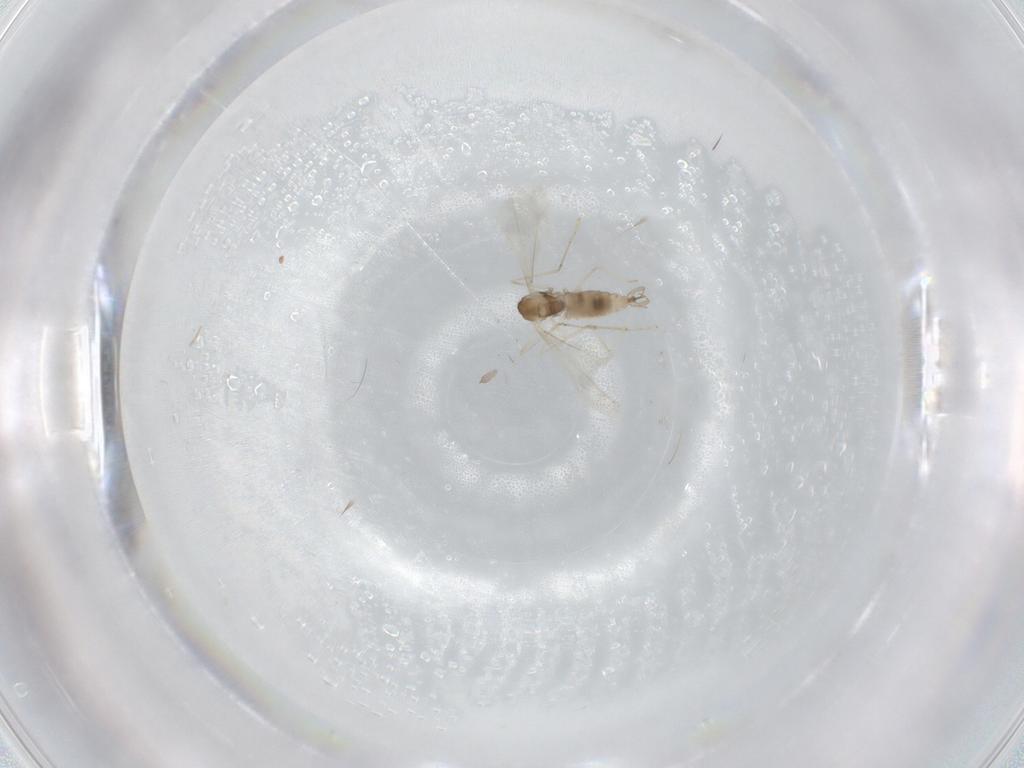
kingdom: Animalia
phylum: Arthropoda
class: Insecta
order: Diptera
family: Cecidomyiidae
